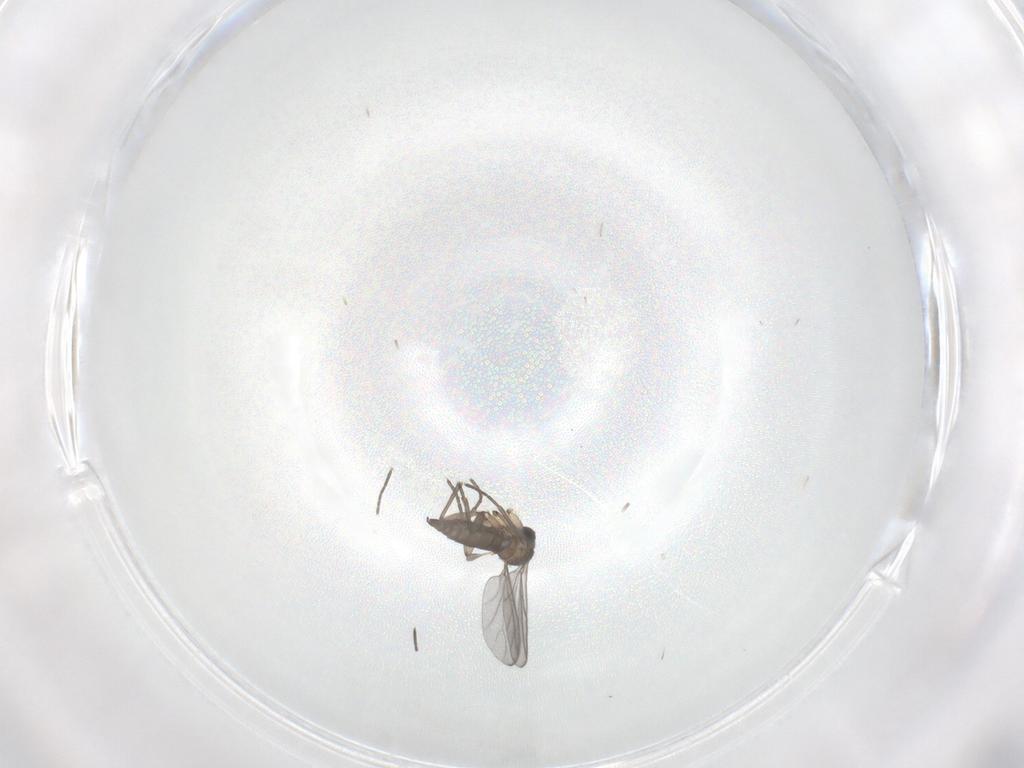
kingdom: Animalia
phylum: Arthropoda
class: Insecta
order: Diptera
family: Chironomidae
